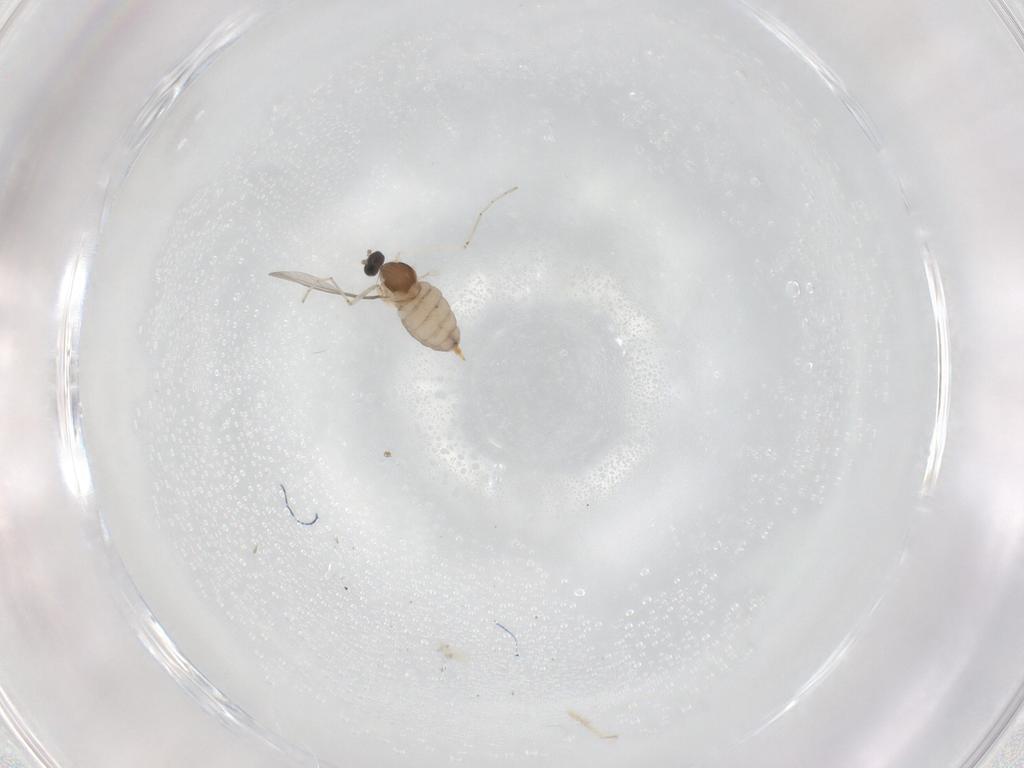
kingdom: Animalia
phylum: Arthropoda
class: Insecta
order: Diptera
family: Cecidomyiidae
